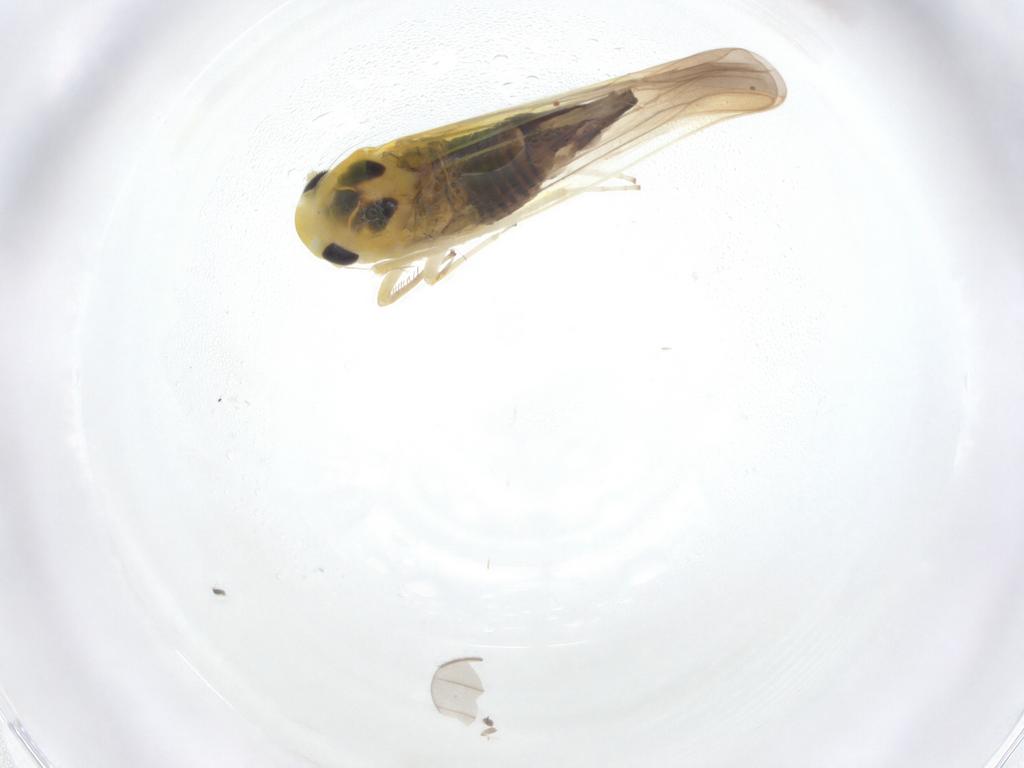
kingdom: Animalia
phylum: Arthropoda
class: Insecta
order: Hemiptera
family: Cicadellidae
